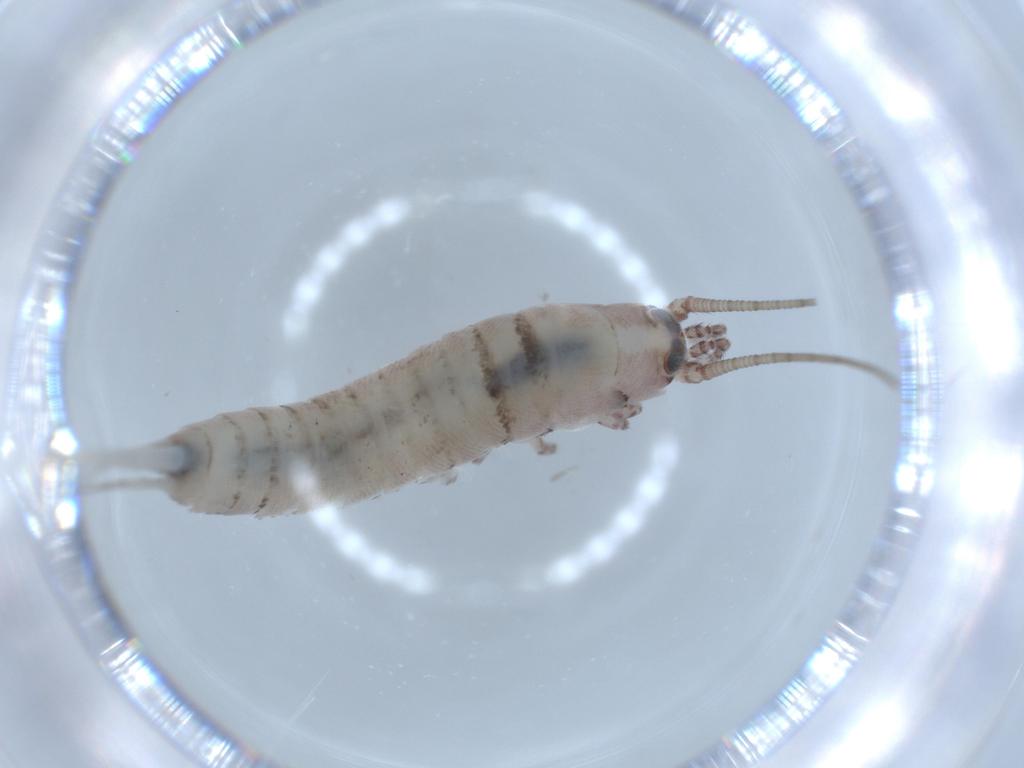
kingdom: Animalia
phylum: Arthropoda
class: Insecta
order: Archaeognatha
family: Machilidae
